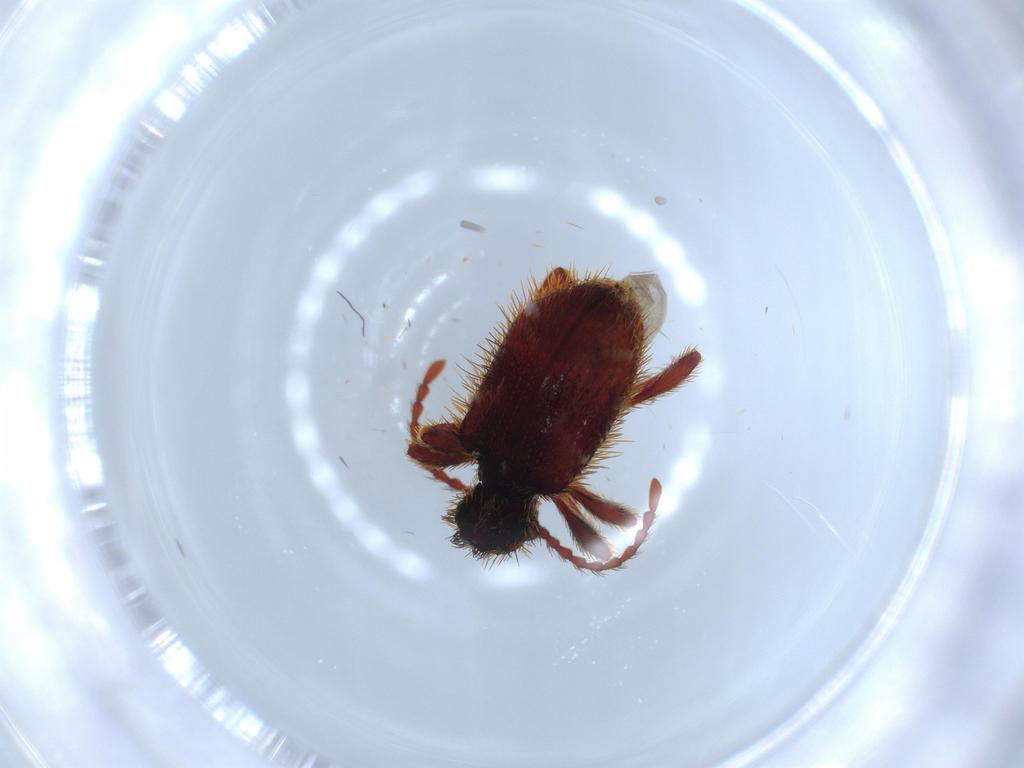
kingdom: Animalia
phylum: Arthropoda
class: Insecta
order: Coleoptera
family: Ptinidae
